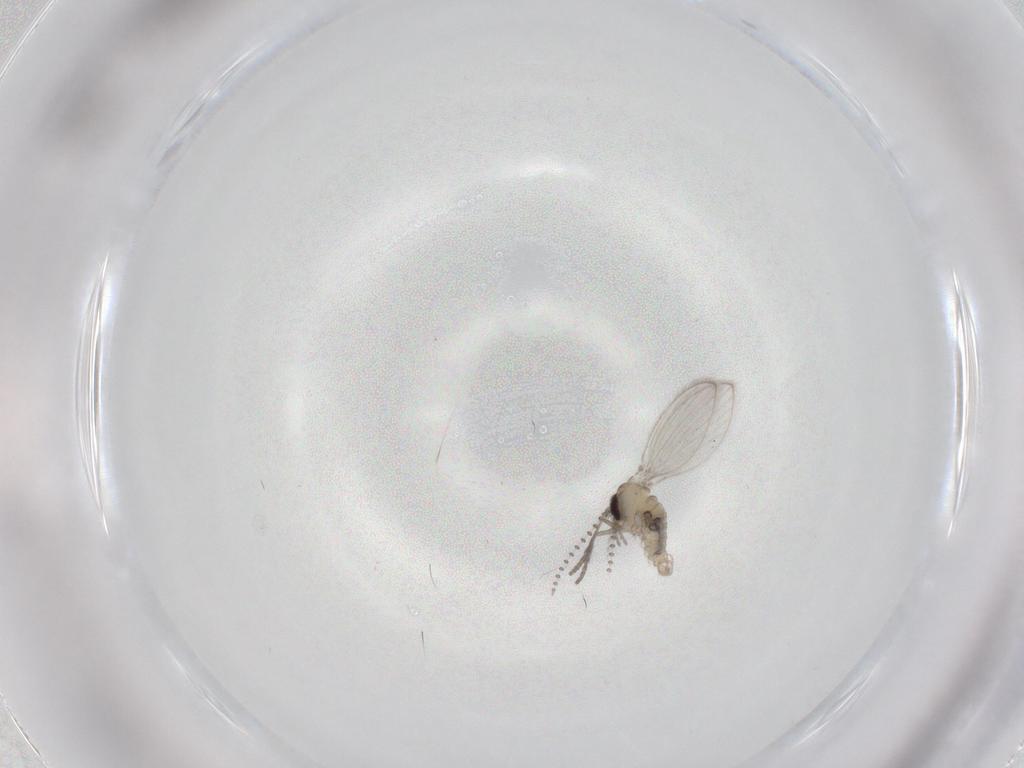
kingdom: Animalia
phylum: Arthropoda
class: Insecta
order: Diptera
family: Psychodidae
